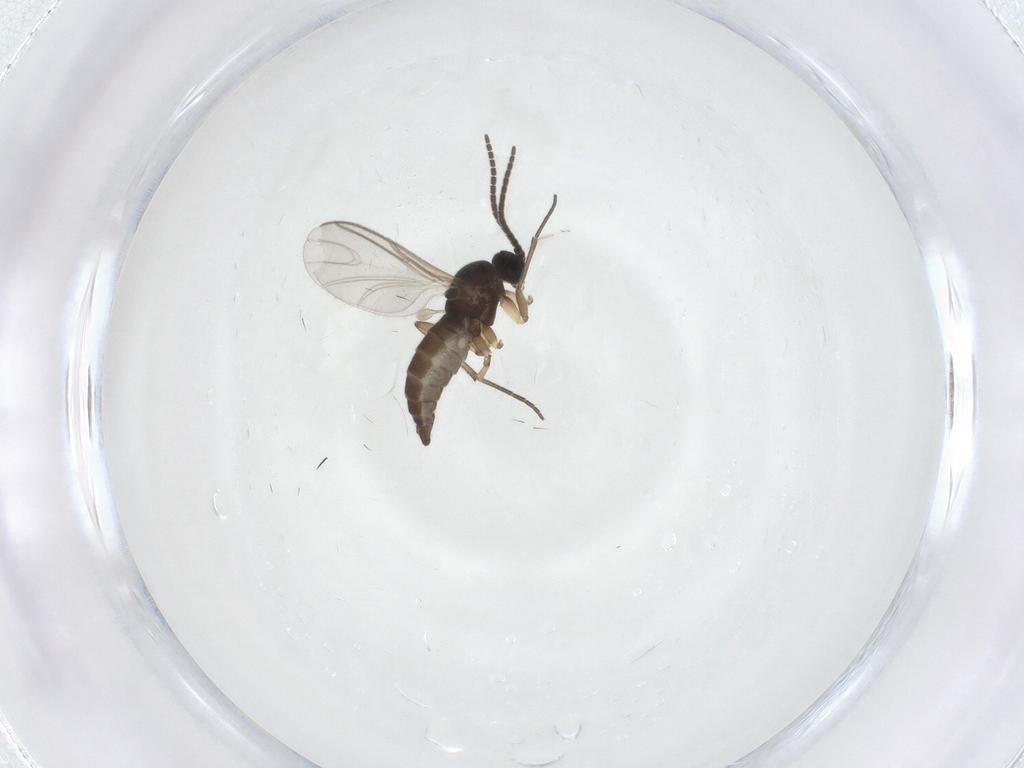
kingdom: Animalia
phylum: Arthropoda
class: Insecta
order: Diptera
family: Sciaridae
